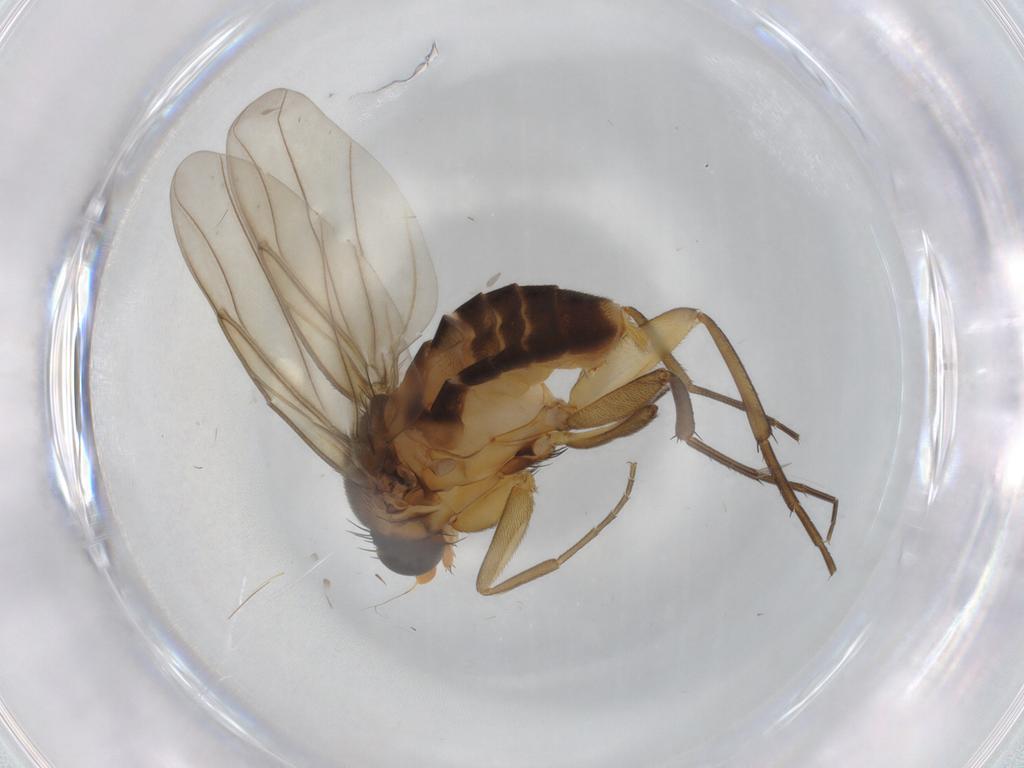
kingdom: Animalia
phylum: Arthropoda
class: Insecta
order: Diptera
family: Phoridae
